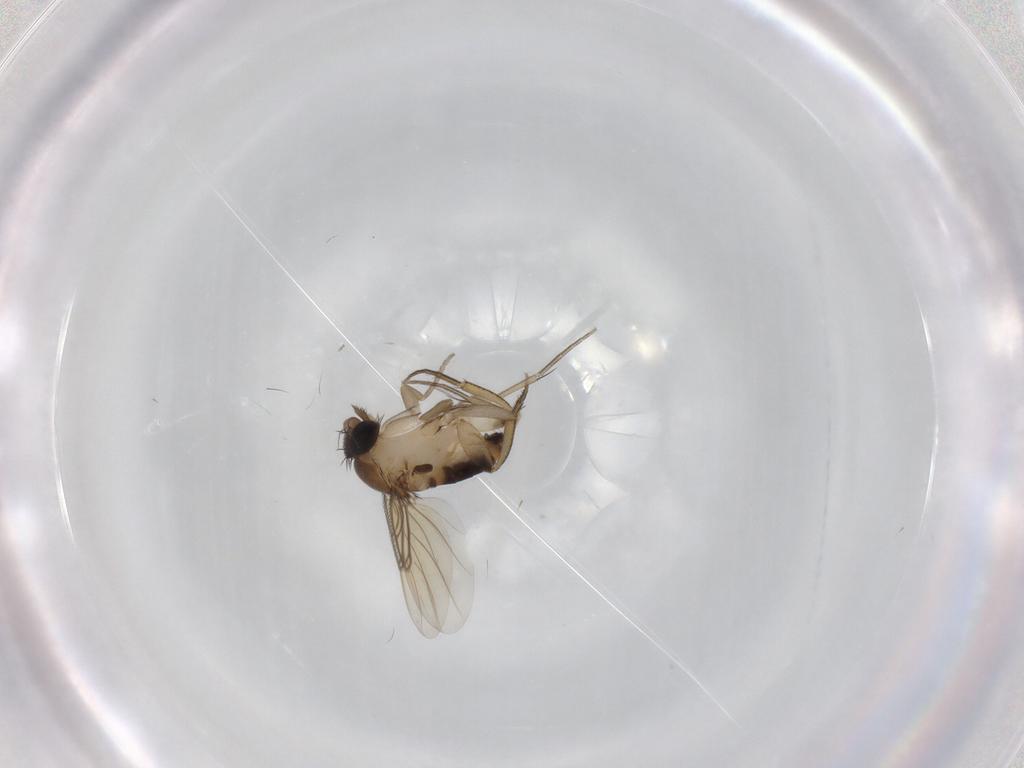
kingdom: Animalia
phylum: Arthropoda
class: Insecta
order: Diptera
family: Phoridae
